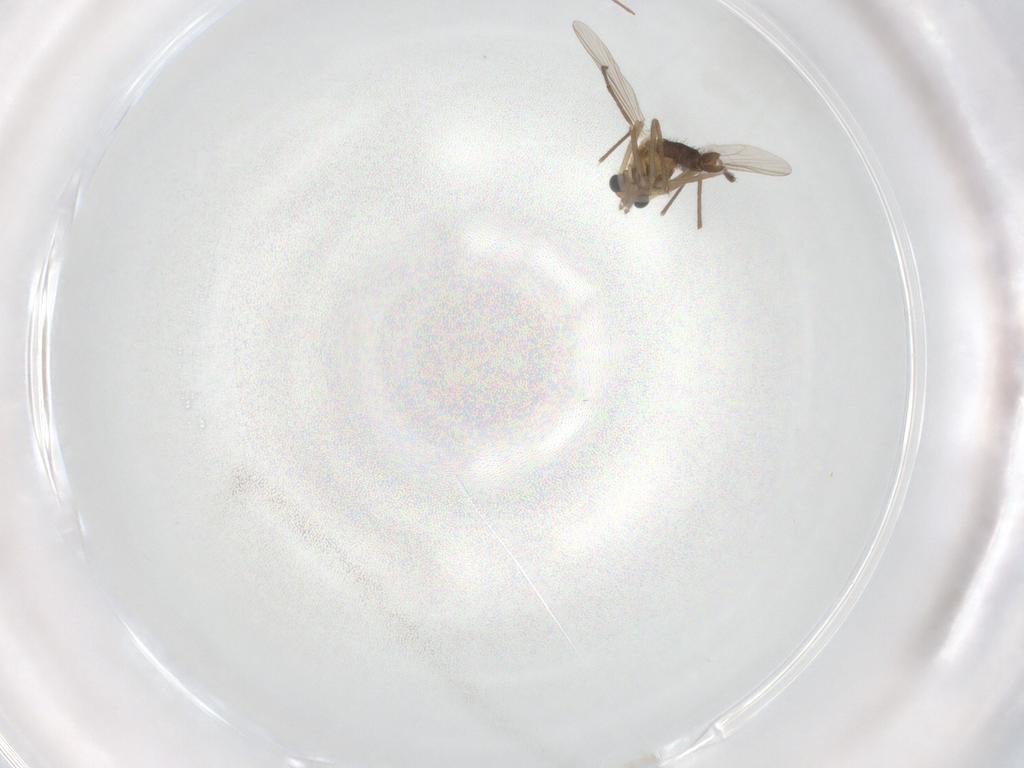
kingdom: Animalia
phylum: Arthropoda
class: Insecta
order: Diptera
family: Chironomidae
